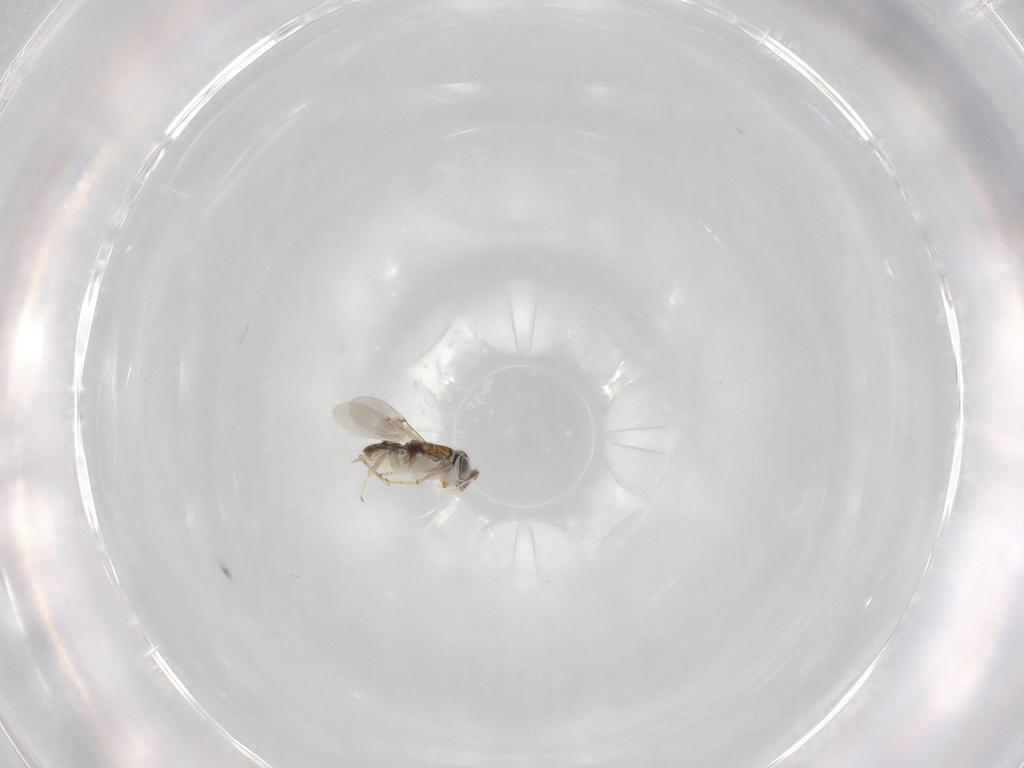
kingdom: Animalia
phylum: Arthropoda
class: Insecta
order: Hymenoptera
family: Encyrtidae
